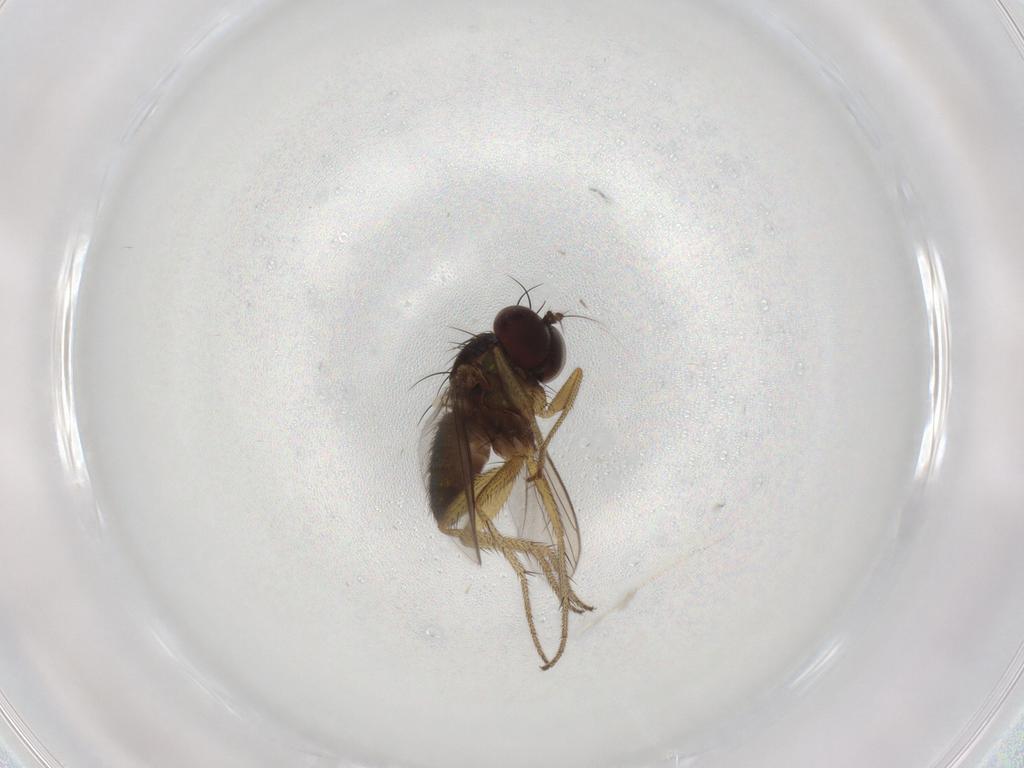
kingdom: Animalia
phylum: Arthropoda
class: Insecta
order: Diptera
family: Dolichopodidae
